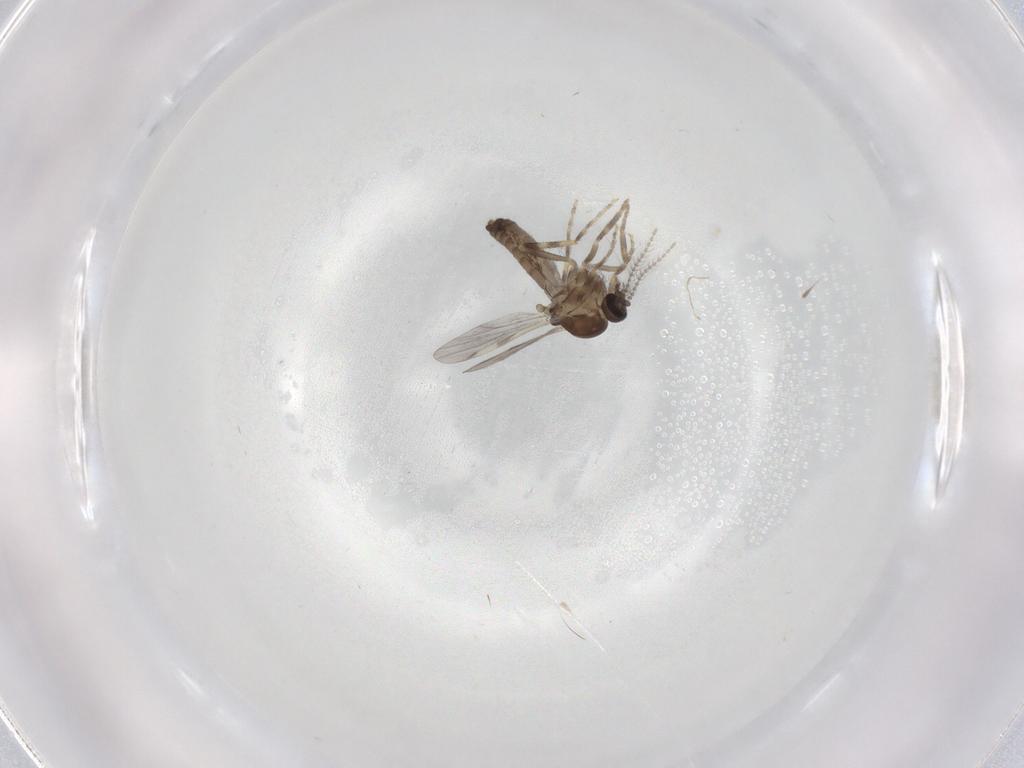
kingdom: Animalia
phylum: Arthropoda
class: Insecta
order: Diptera
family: Ceratopogonidae
